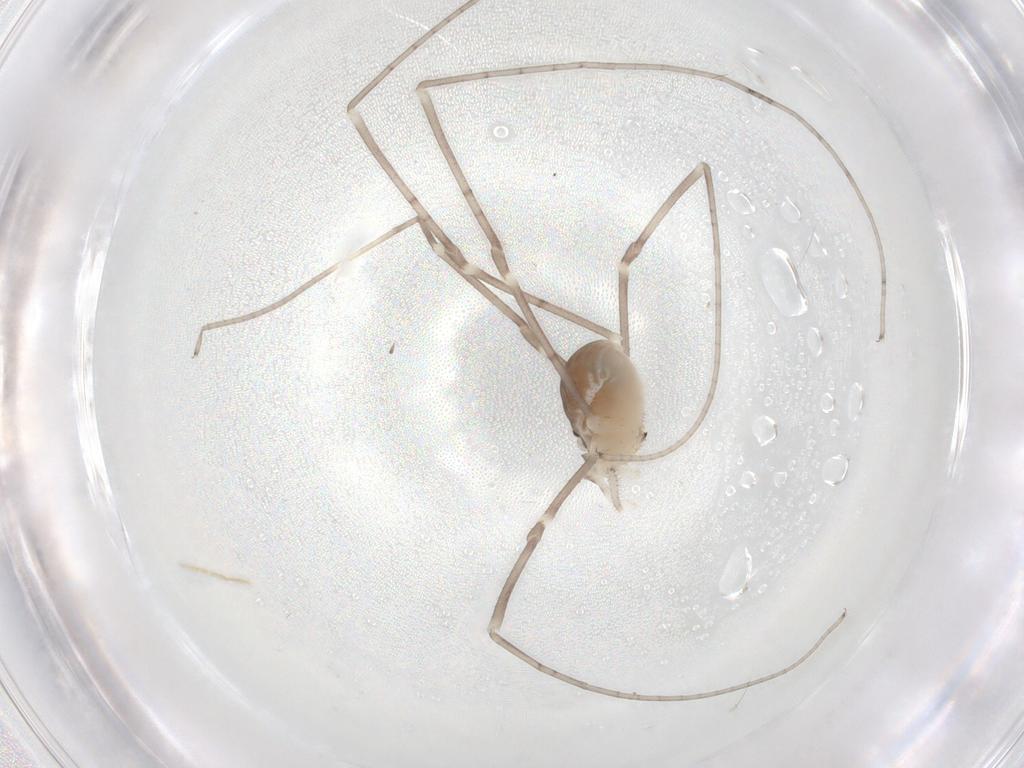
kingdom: Animalia
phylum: Arthropoda
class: Arachnida
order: Opiliones
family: Sclerosomatidae
